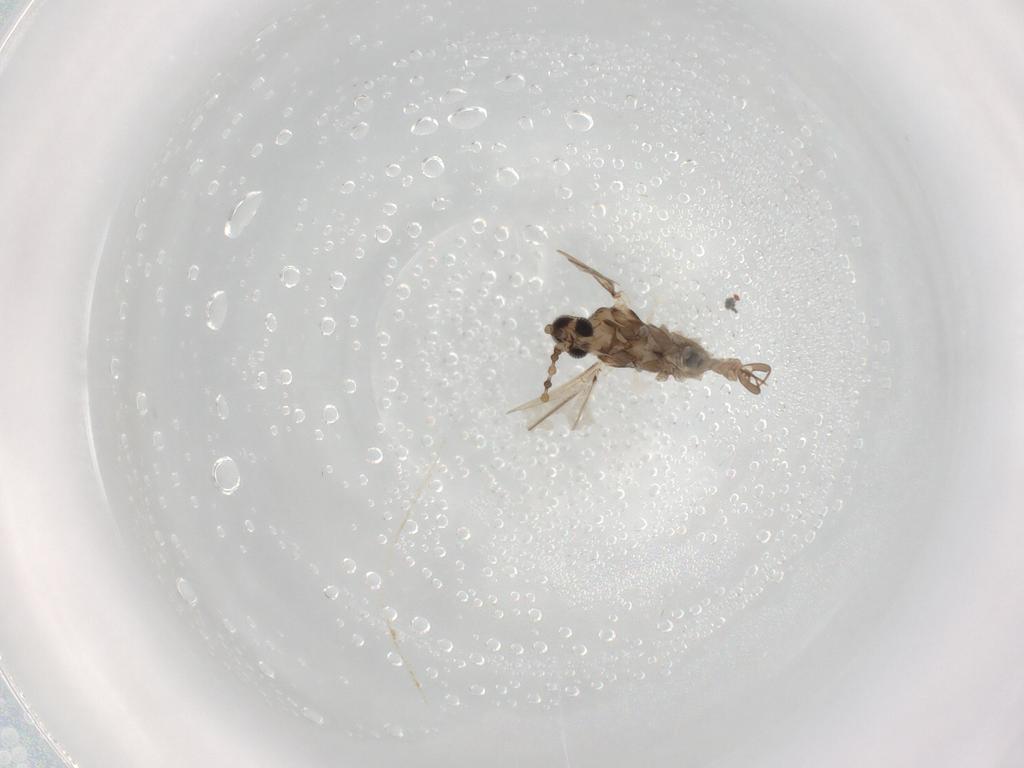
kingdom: Animalia
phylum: Arthropoda
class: Insecta
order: Diptera
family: Cecidomyiidae
